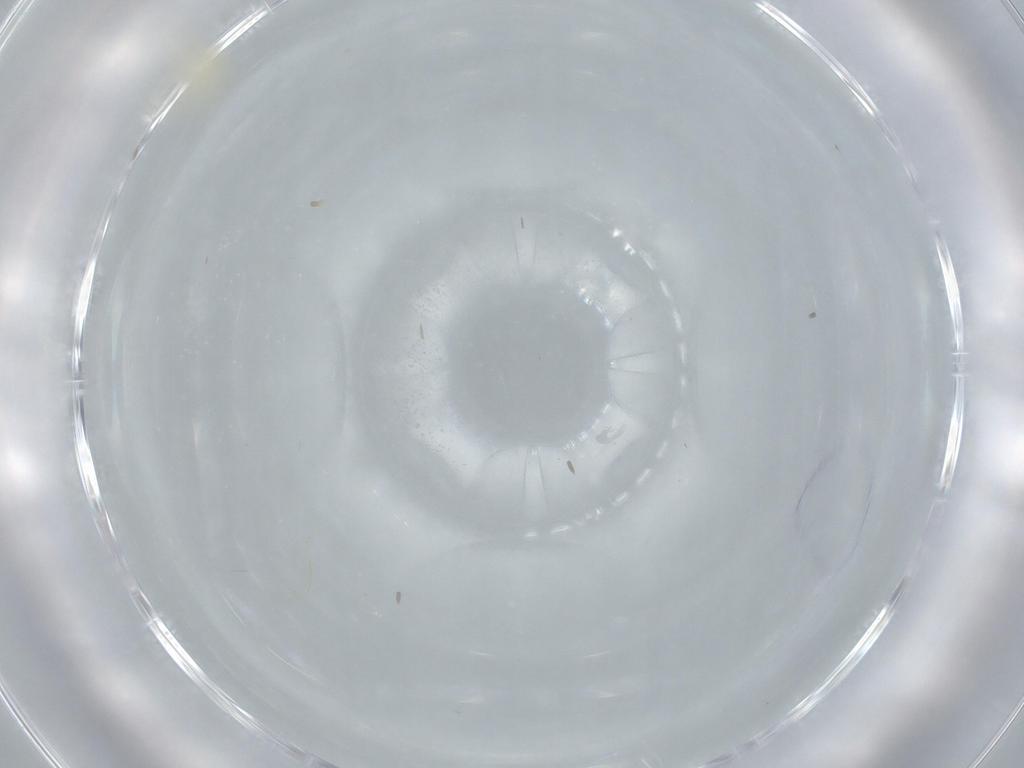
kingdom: Animalia
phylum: Arthropoda
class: Insecta
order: Hemiptera
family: Aleyrodidae
